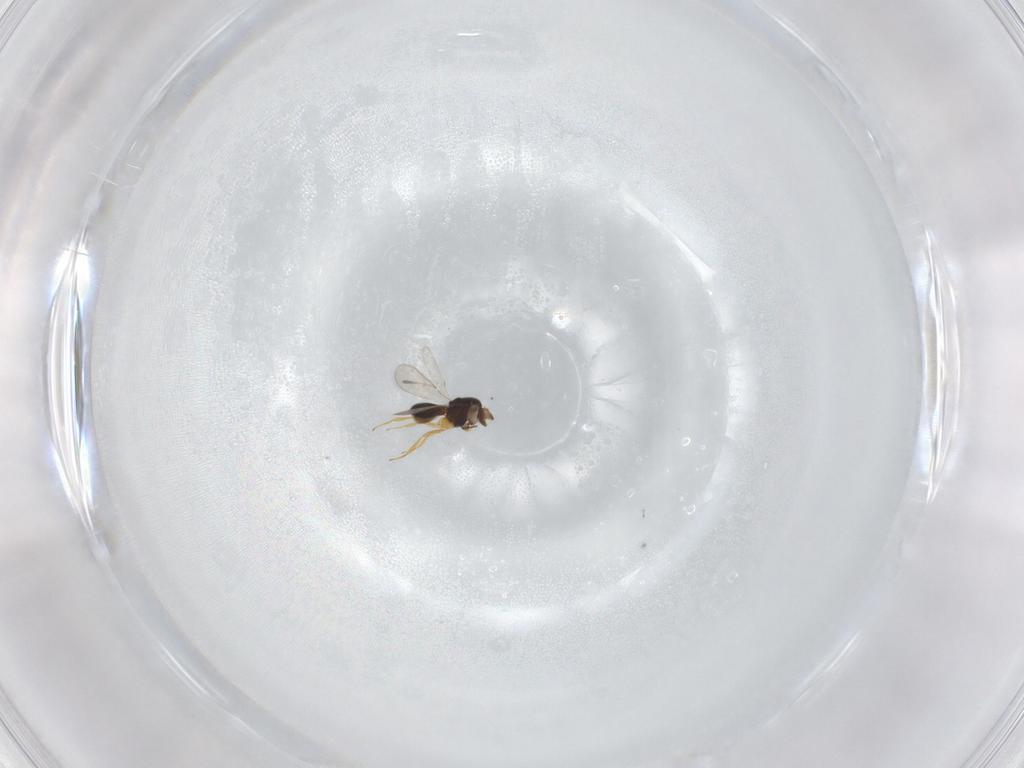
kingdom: Animalia
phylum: Arthropoda
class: Insecta
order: Hymenoptera
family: Scelionidae
